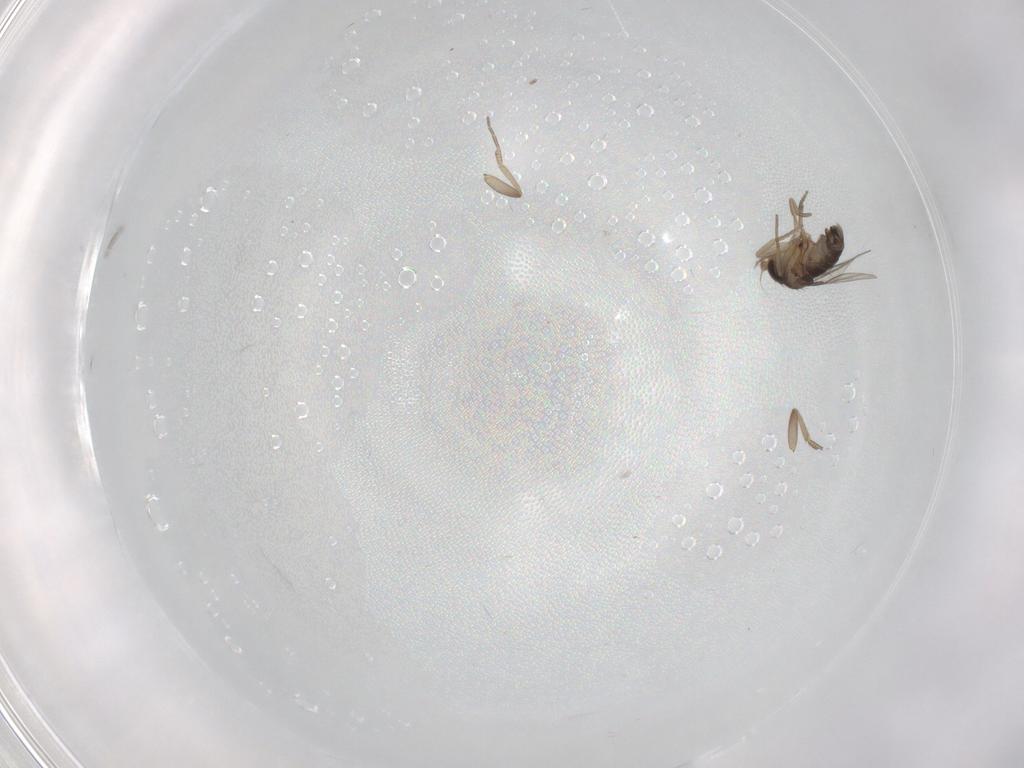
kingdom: Animalia
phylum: Arthropoda
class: Insecta
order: Diptera
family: Phoridae
